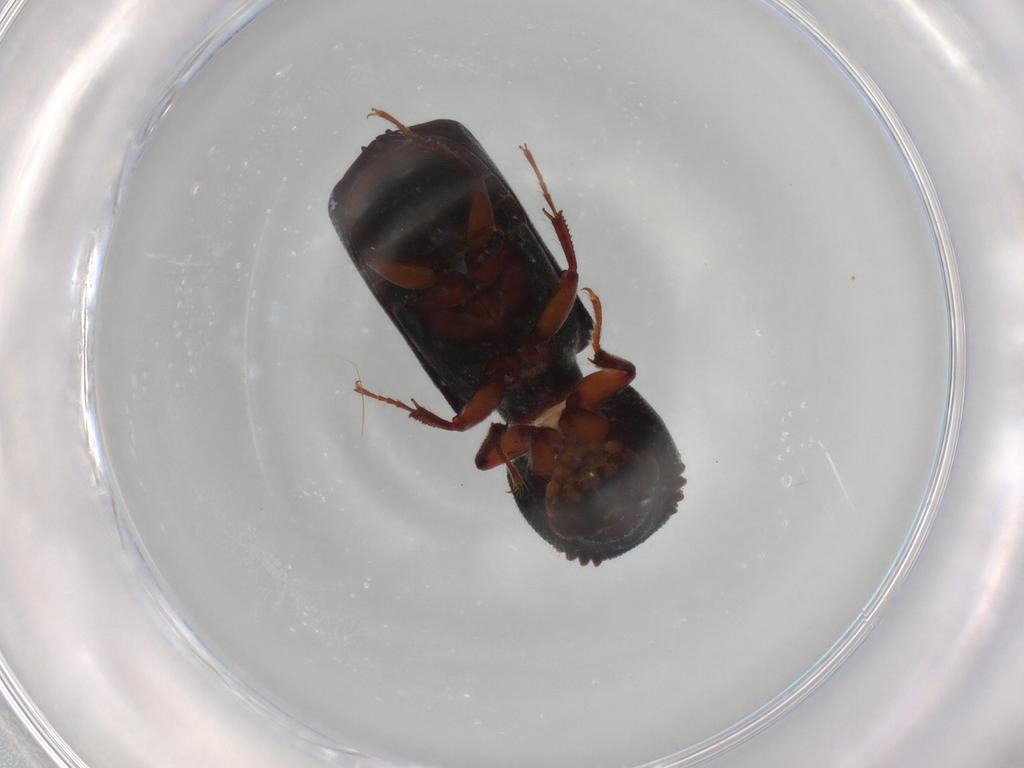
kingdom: Animalia
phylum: Arthropoda
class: Insecta
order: Coleoptera
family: Bostrichidae
